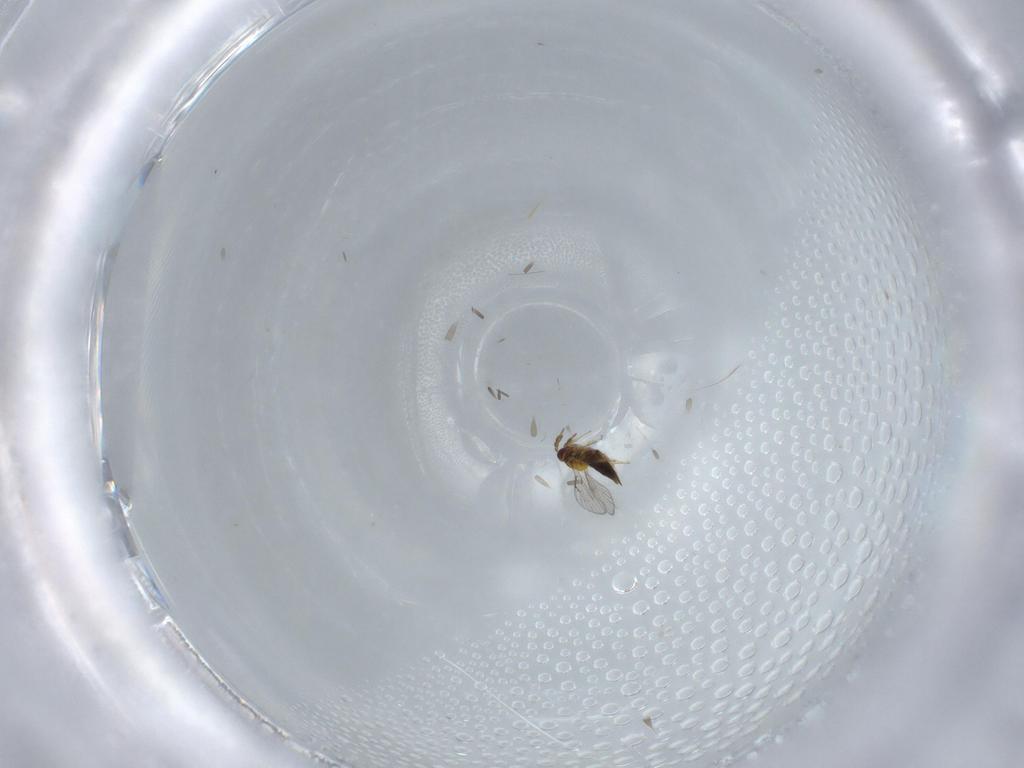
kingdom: Animalia
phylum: Arthropoda
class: Insecta
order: Hymenoptera
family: Trichogrammatidae
